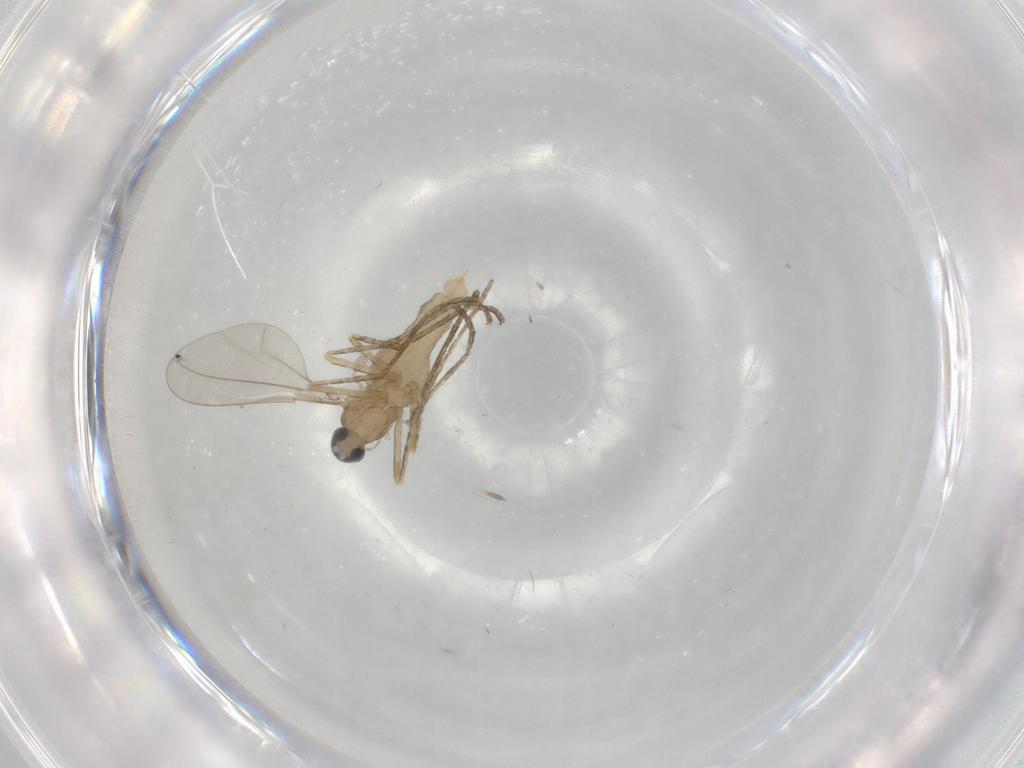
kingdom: Animalia
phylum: Arthropoda
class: Insecta
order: Diptera
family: Cecidomyiidae
